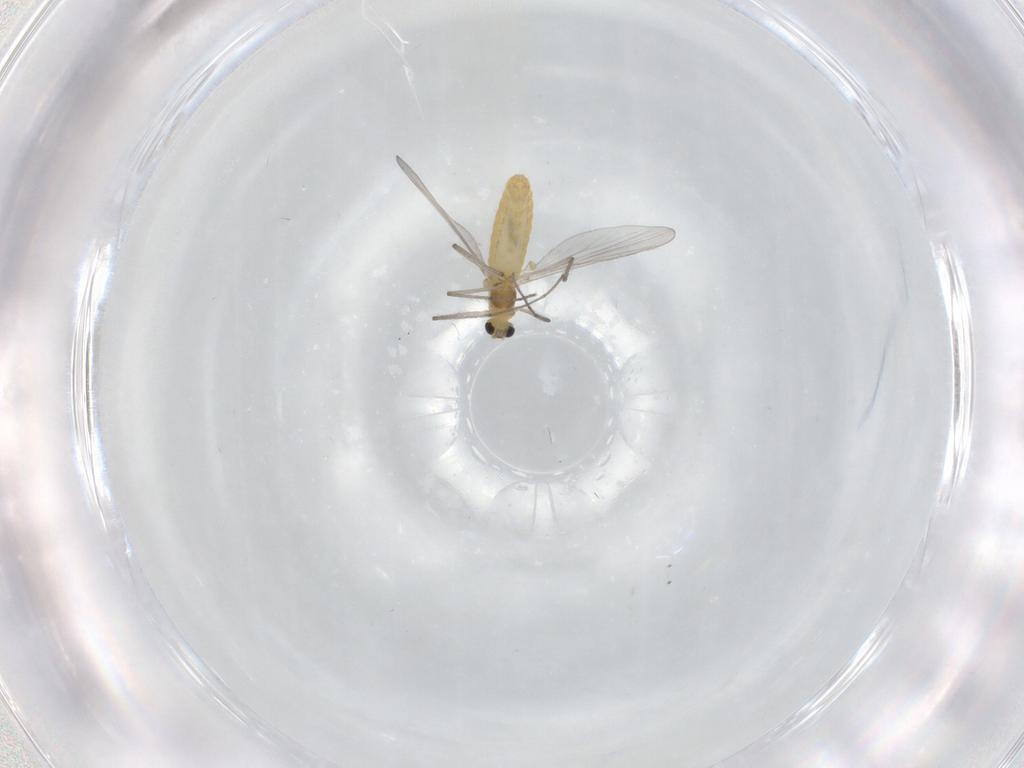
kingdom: Animalia
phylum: Arthropoda
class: Insecta
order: Diptera
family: Chironomidae
